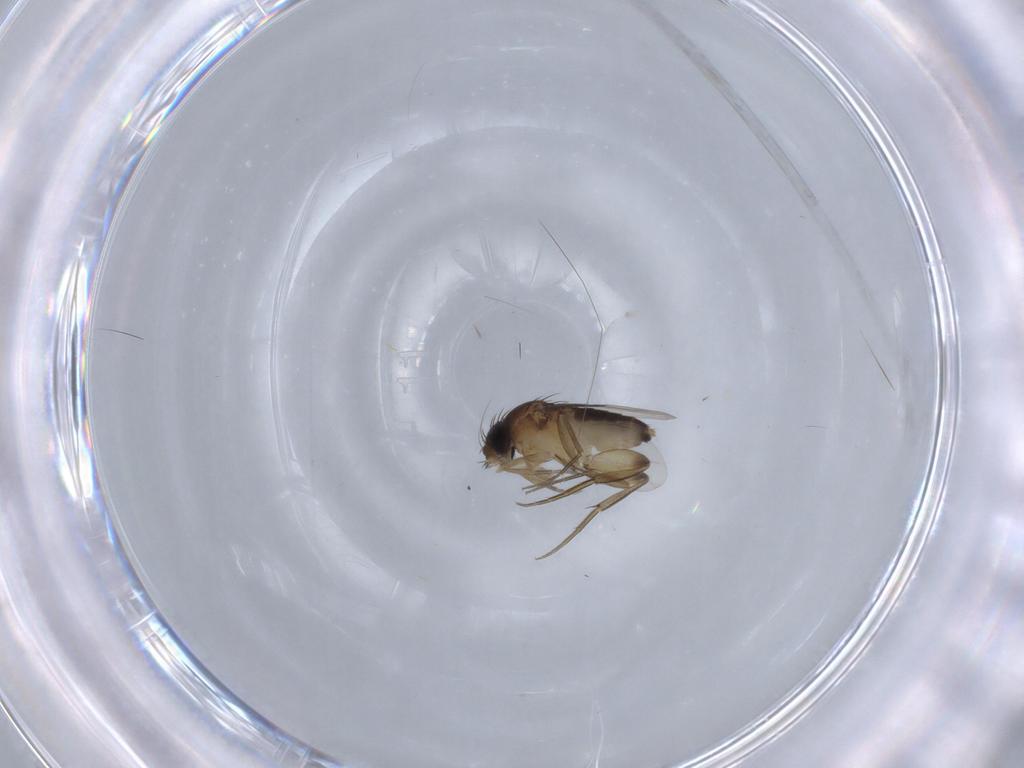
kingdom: Animalia
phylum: Arthropoda
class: Insecta
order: Diptera
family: Phoridae
